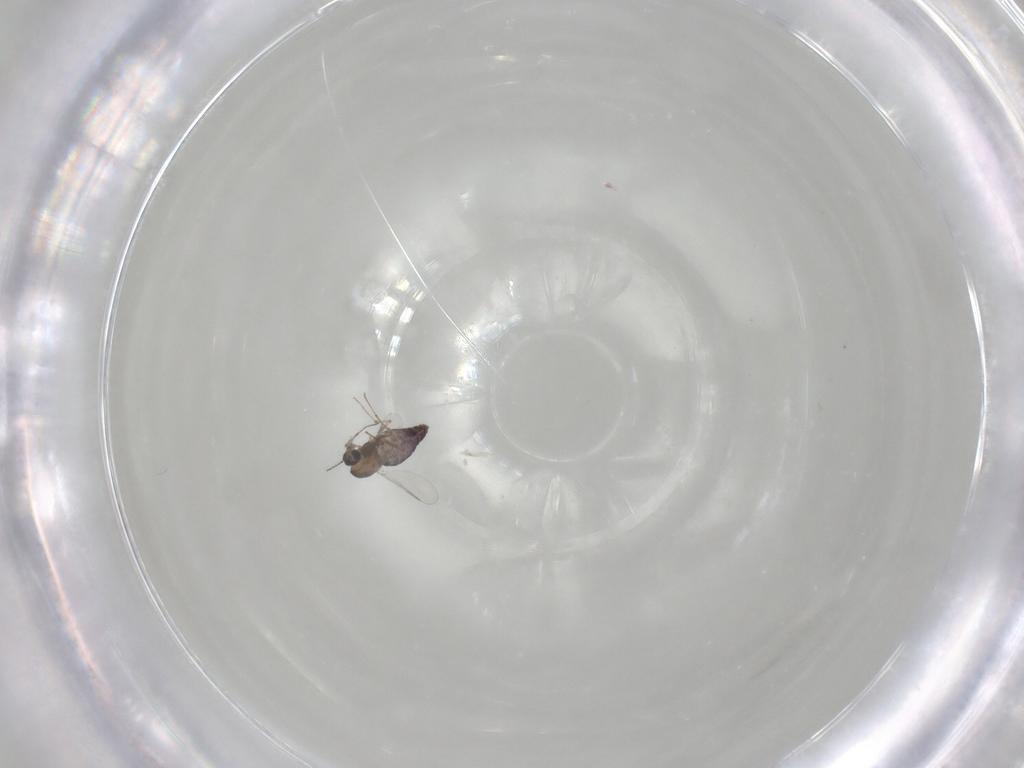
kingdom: Animalia
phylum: Arthropoda
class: Insecta
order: Diptera
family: Chironomidae
